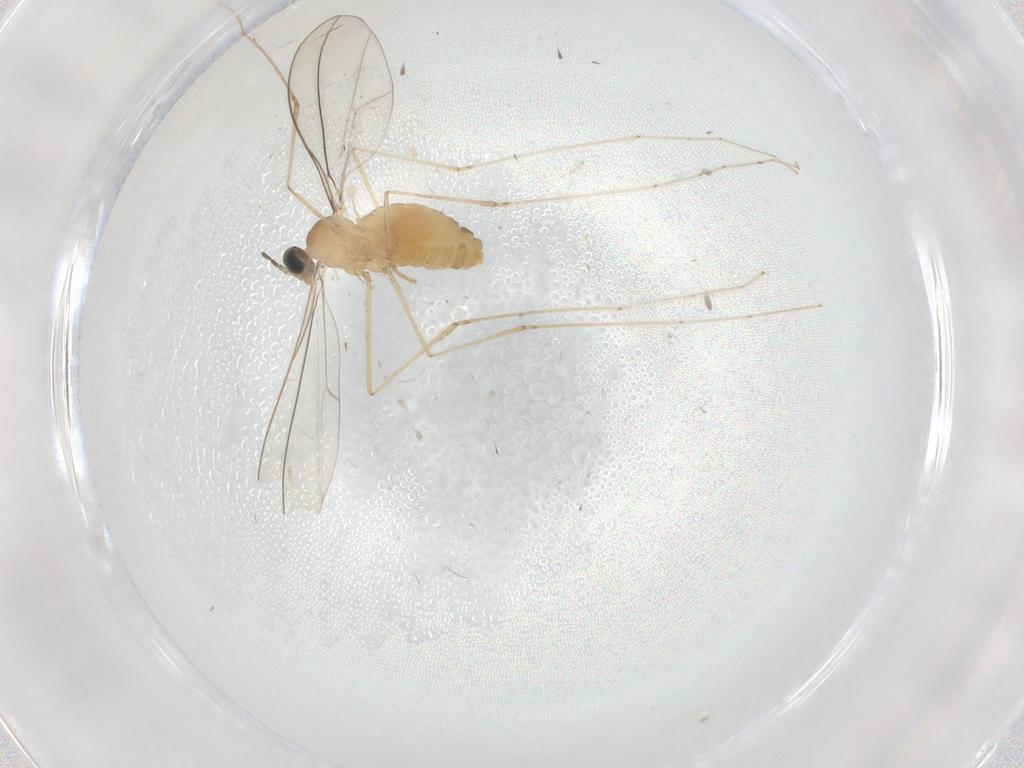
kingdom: Animalia
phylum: Arthropoda
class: Insecta
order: Diptera
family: Cecidomyiidae
